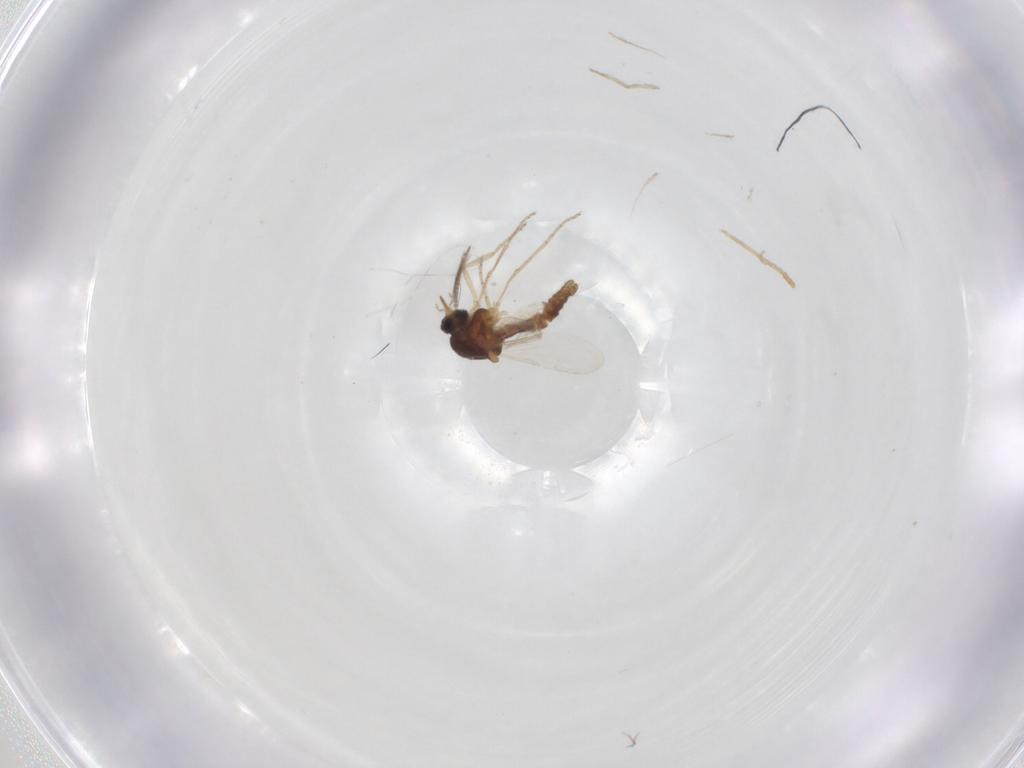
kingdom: Animalia
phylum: Arthropoda
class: Insecta
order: Diptera
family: Ceratopogonidae
